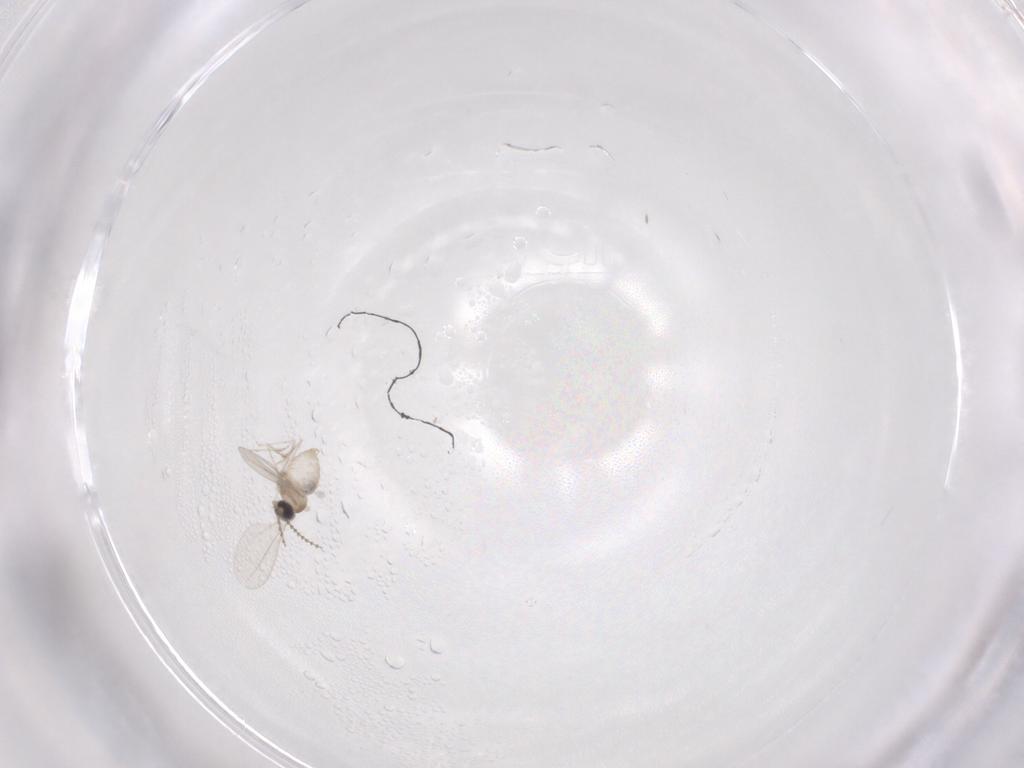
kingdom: Animalia
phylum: Arthropoda
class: Insecta
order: Diptera
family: Cecidomyiidae
